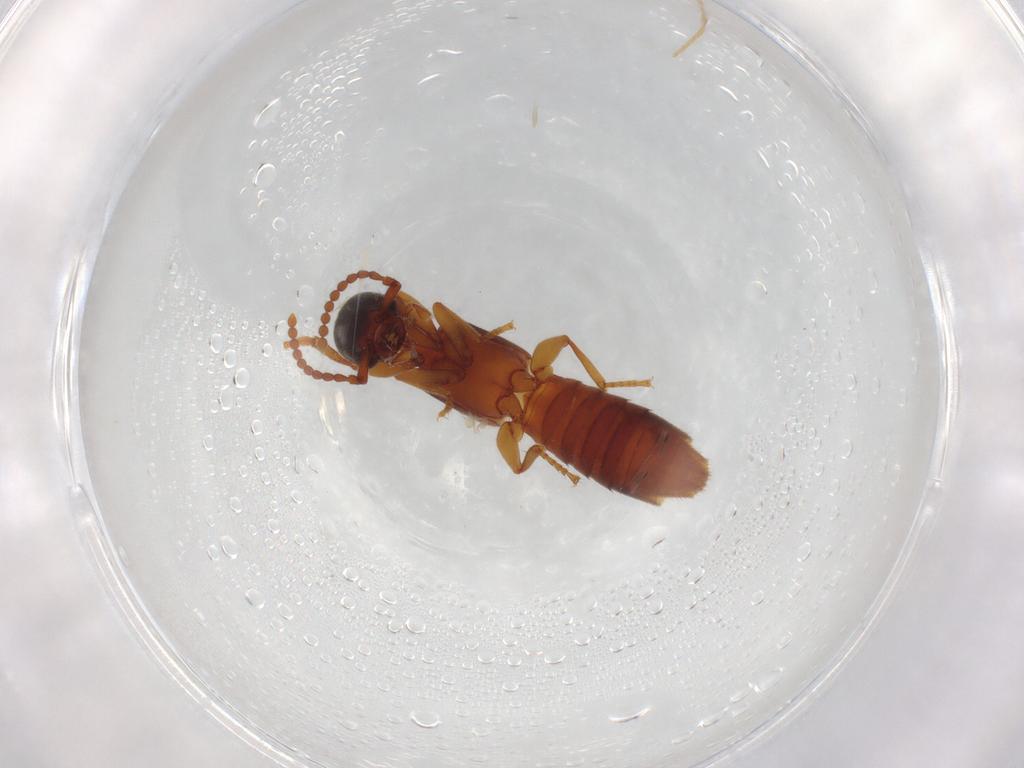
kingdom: Animalia
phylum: Arthropoda
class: Insecta
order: Coleoptera
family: Staphylinidae
